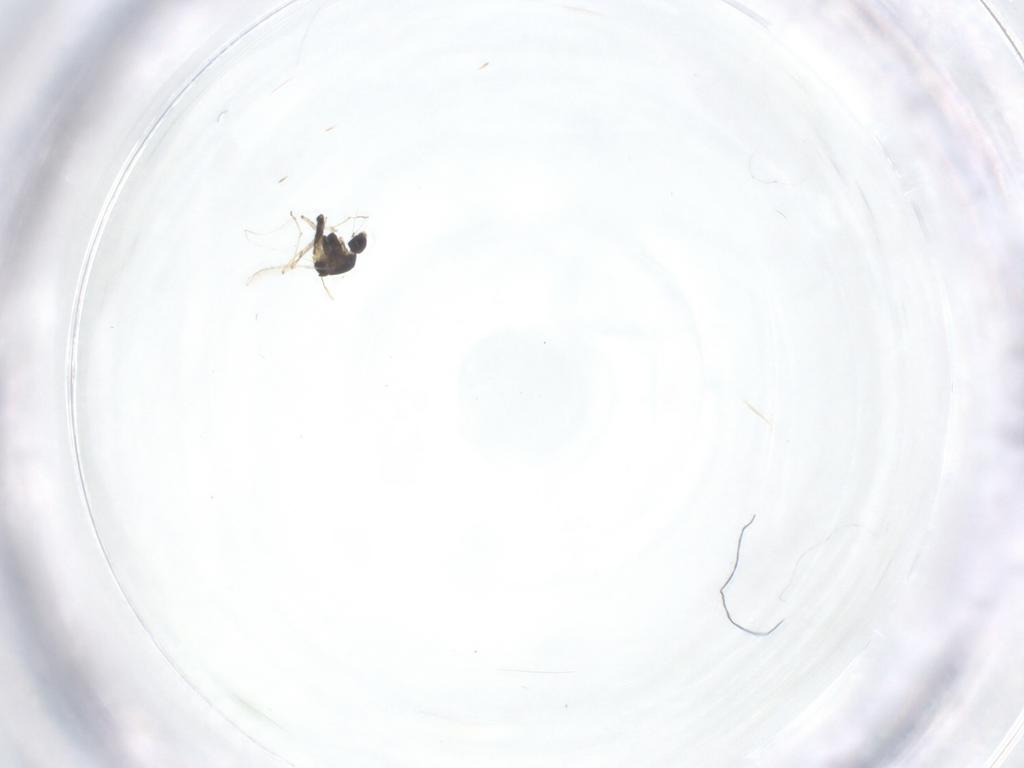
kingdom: Animalia
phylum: Arthropoda
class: Insecta
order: Diptera
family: Chironomidae
